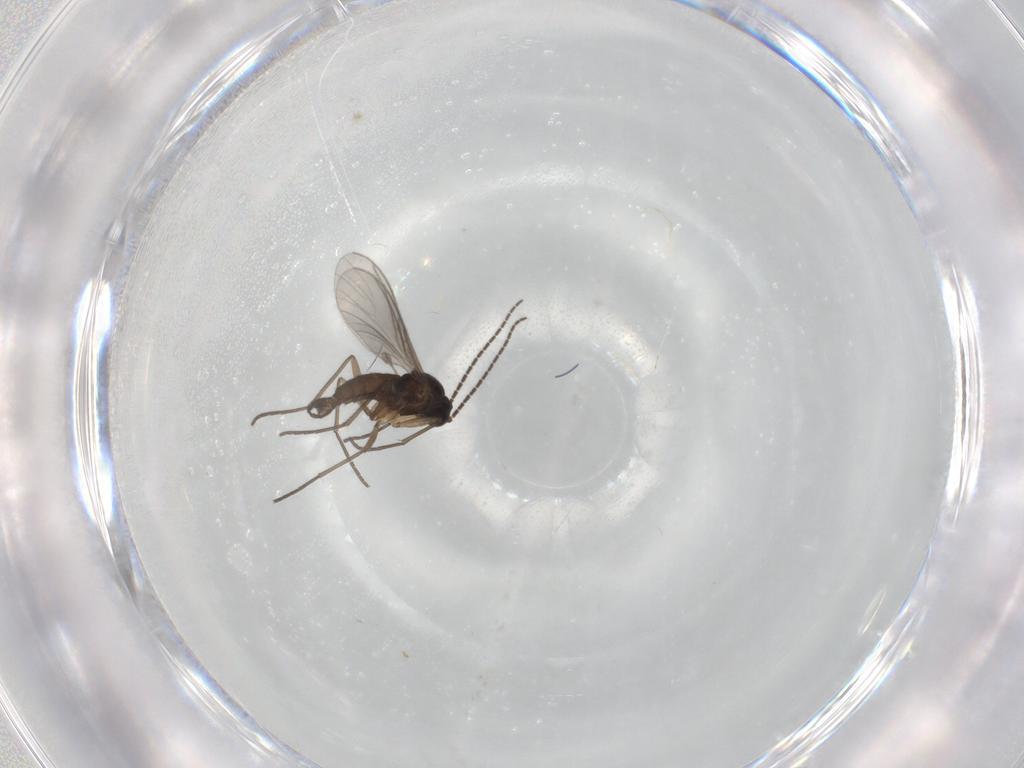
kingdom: Animalia
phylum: Arthropoda
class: Insecta
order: Diptera
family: Sciaridae
